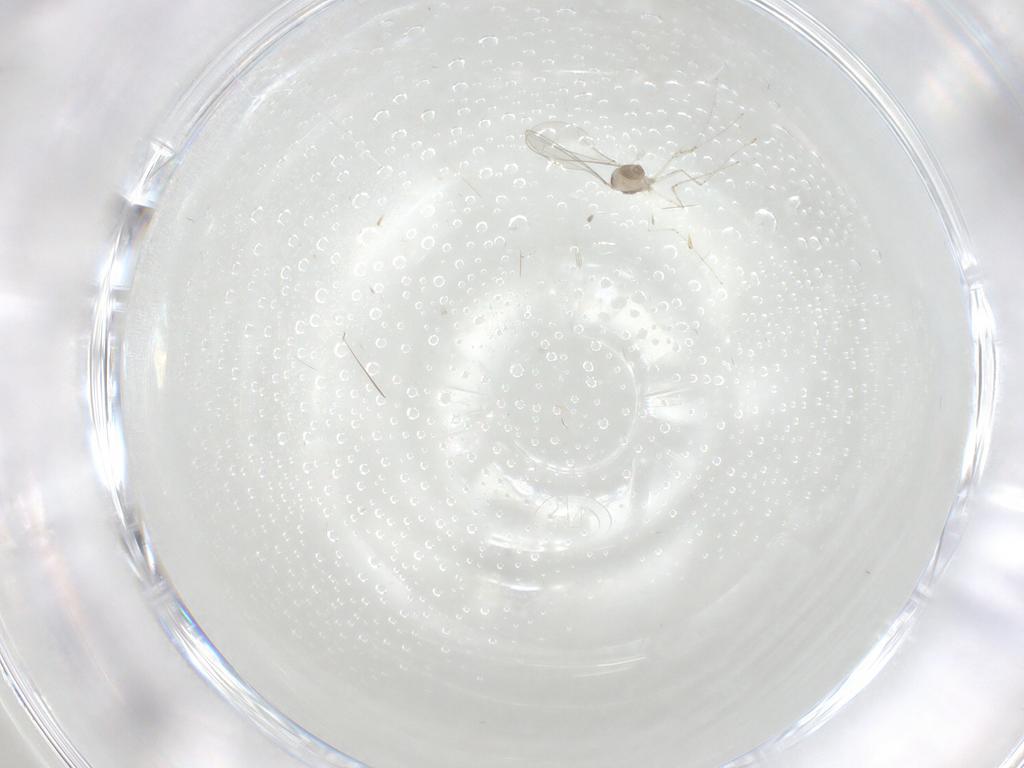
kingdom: Animalia
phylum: Arthropoda
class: Insecta
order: Diptera
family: Cecidomyiidae
